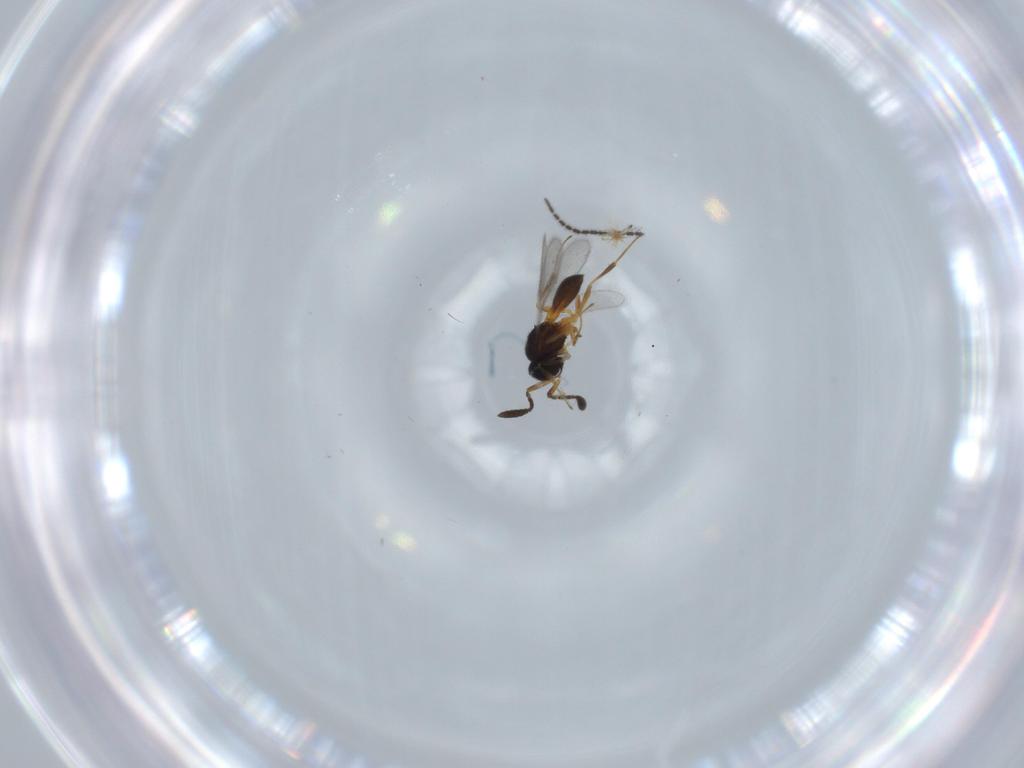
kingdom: Animalia
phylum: Arthropoda
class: Insecta
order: Hymenoptera
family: Scelionidae
